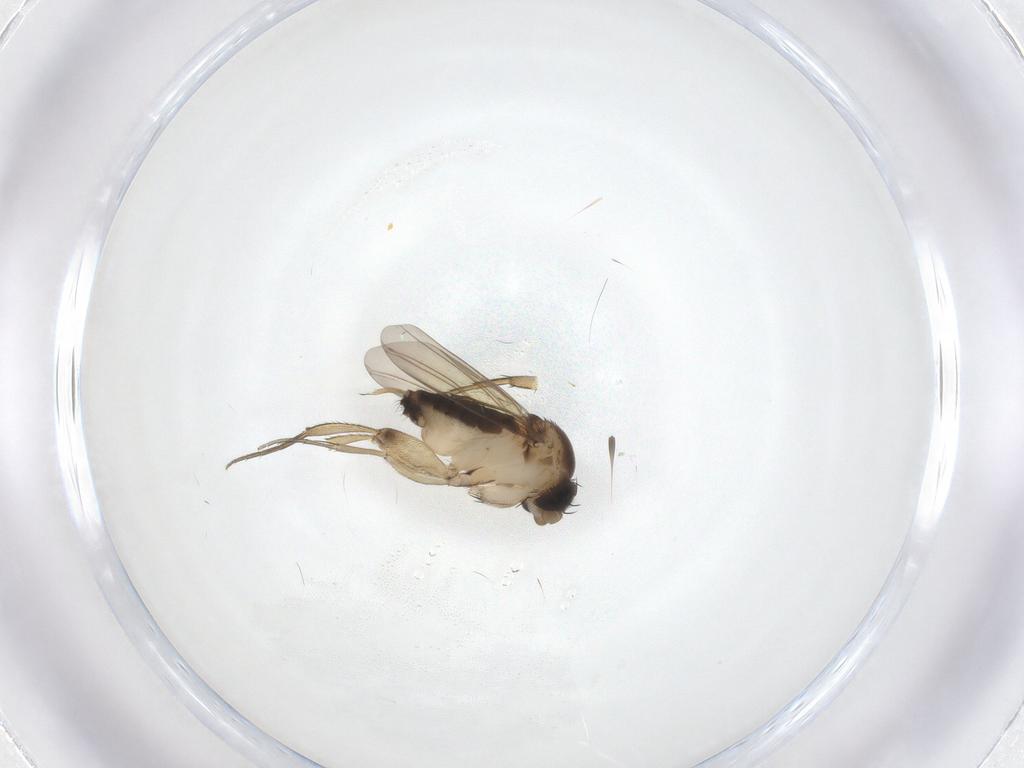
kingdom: Animalia
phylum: Arthropoda
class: Insecta
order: Diptera
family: Phoridae
